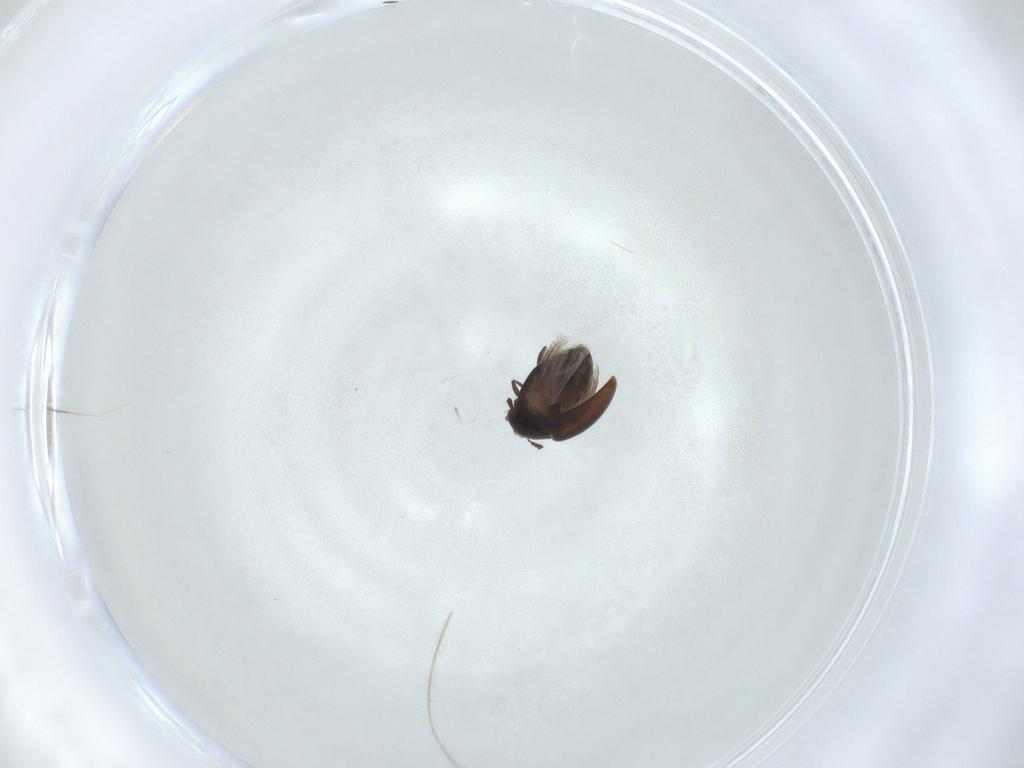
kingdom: Animalia
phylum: Arthropoda
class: Insecta
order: Coleoptera
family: Corylophidae
